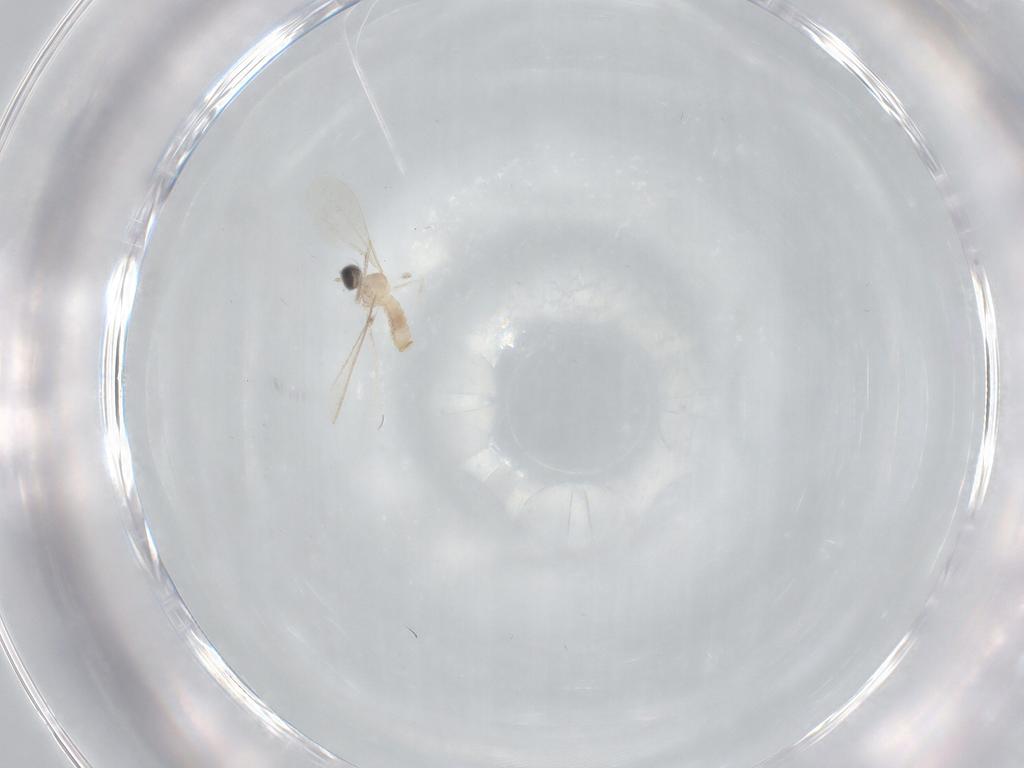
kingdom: Animalia
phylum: Arthropoda
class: Insecta
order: Diptera
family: Cecidomyiidae
